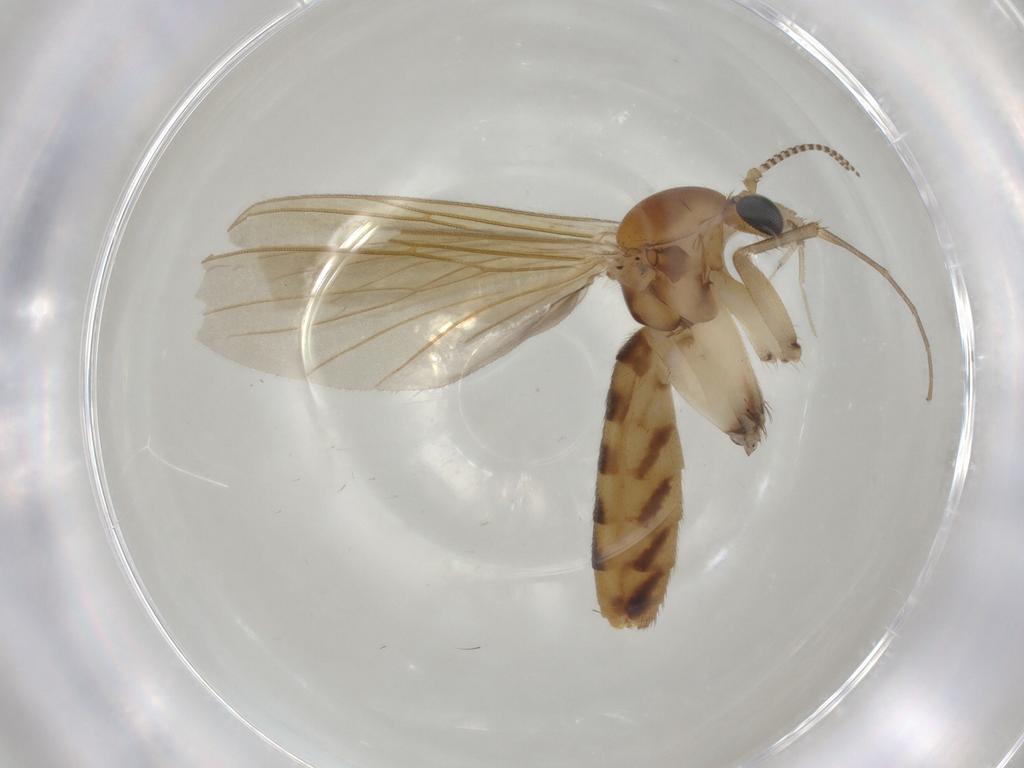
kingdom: Animalia
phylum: Arthropoda
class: Insecta
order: Diptera
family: Mycetophilidae
